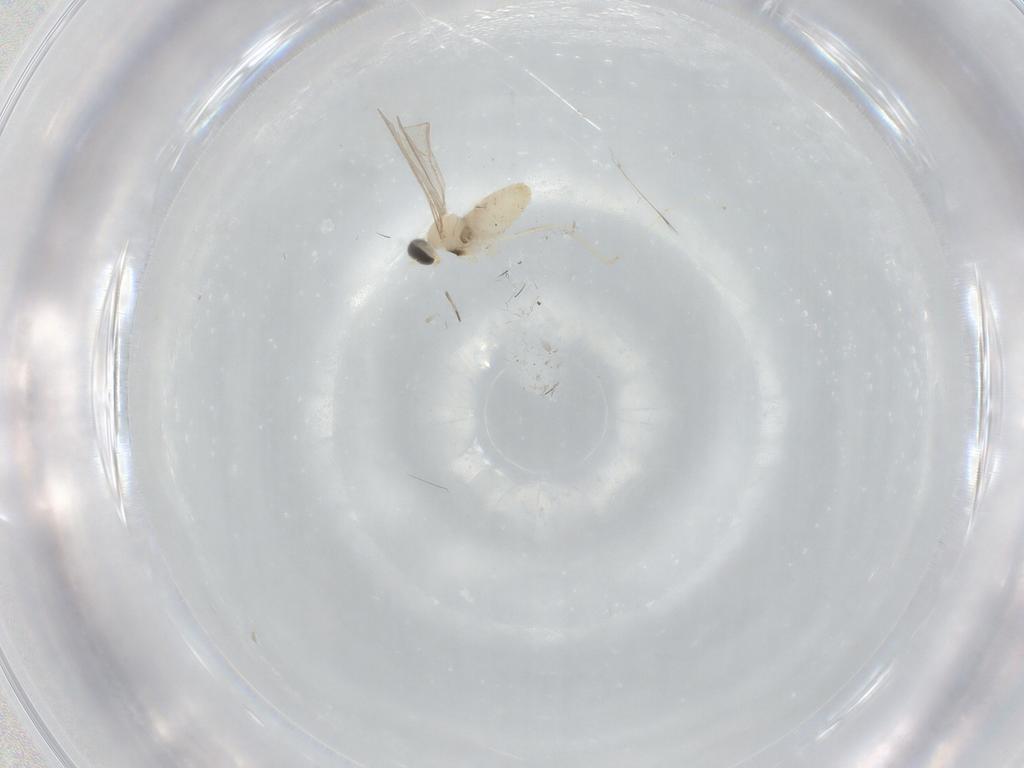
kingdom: Animalia
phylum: Arthropoda
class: Insecta
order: Diptera
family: Cecidomyiidae
